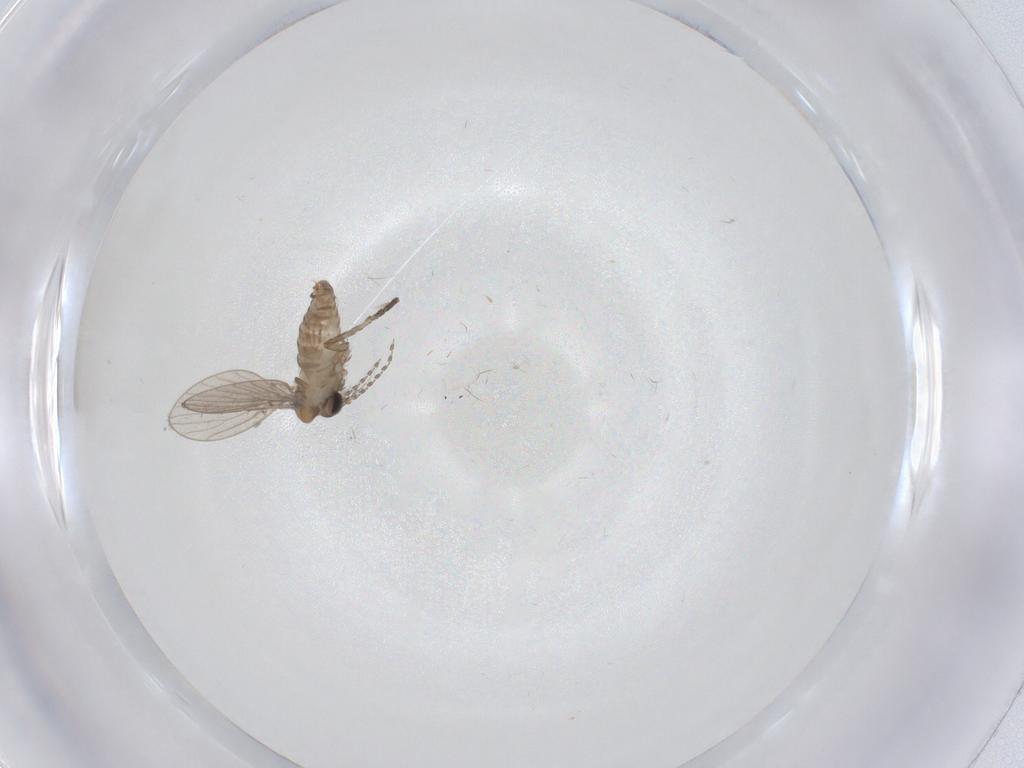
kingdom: Animalia
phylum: Arthropoda
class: Insecta
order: Diptera
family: Psychodidae
